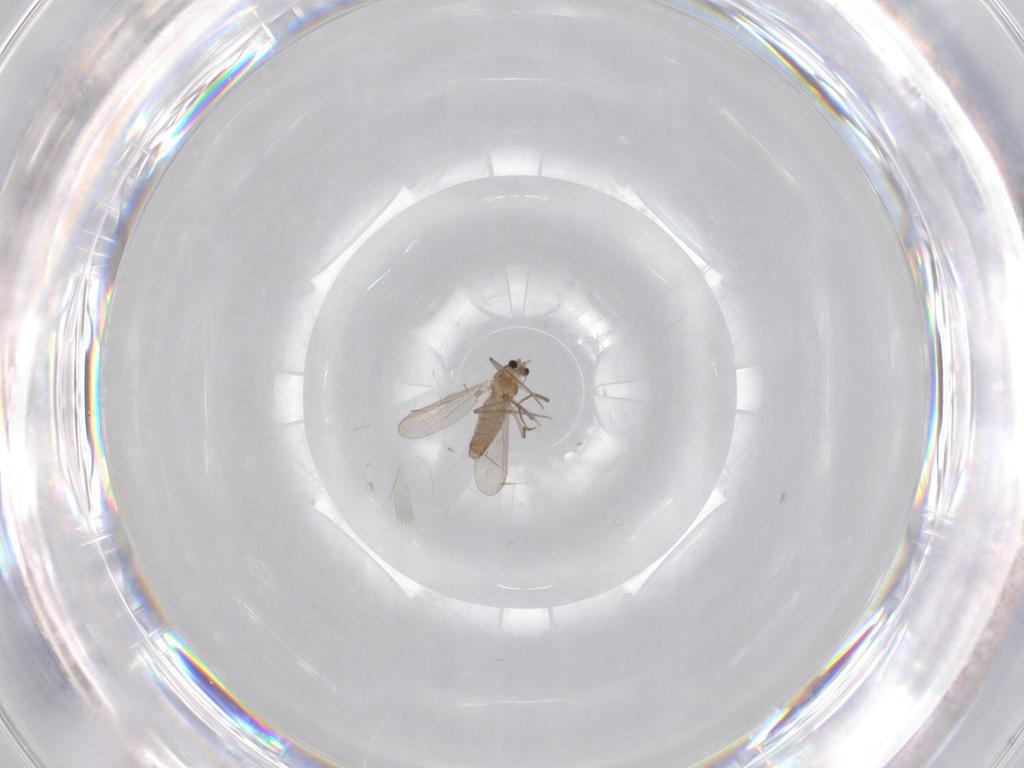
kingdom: Animalia
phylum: Arthropoda
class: Insecta
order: Diptera
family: Chironomidae
